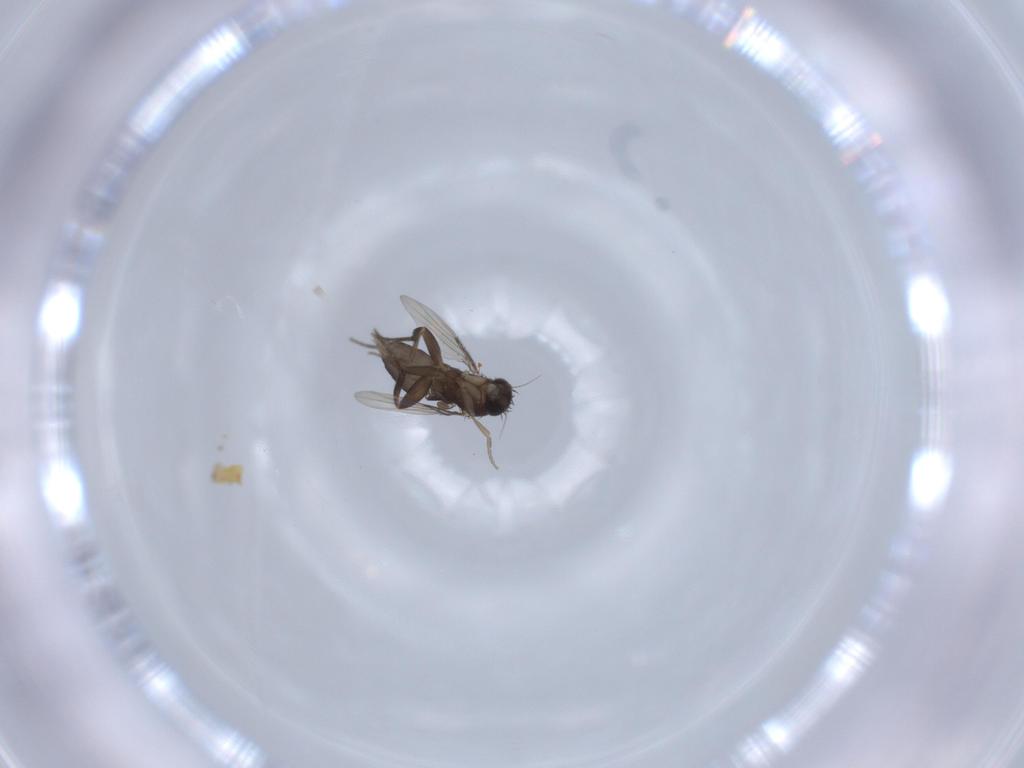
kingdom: Animalia
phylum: Arthropoda
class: Insecta
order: Diptera
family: Phoridae
